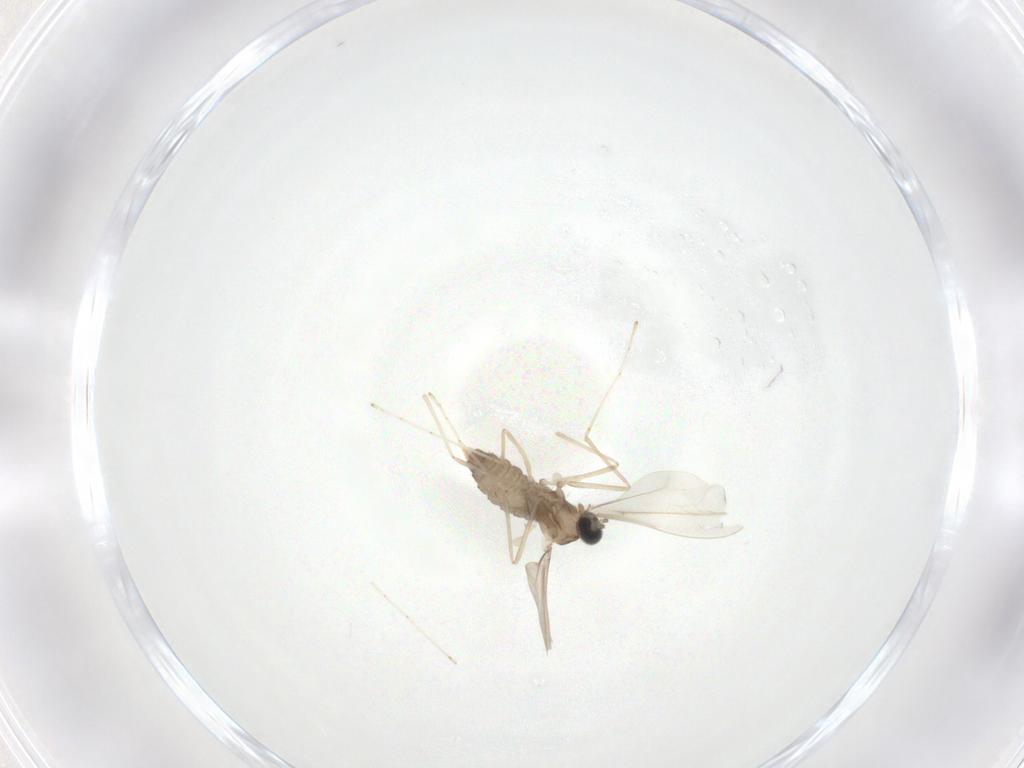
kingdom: Animalia
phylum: Arthropoda
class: Insecta
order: Diptera
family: Cecidomyiidae
